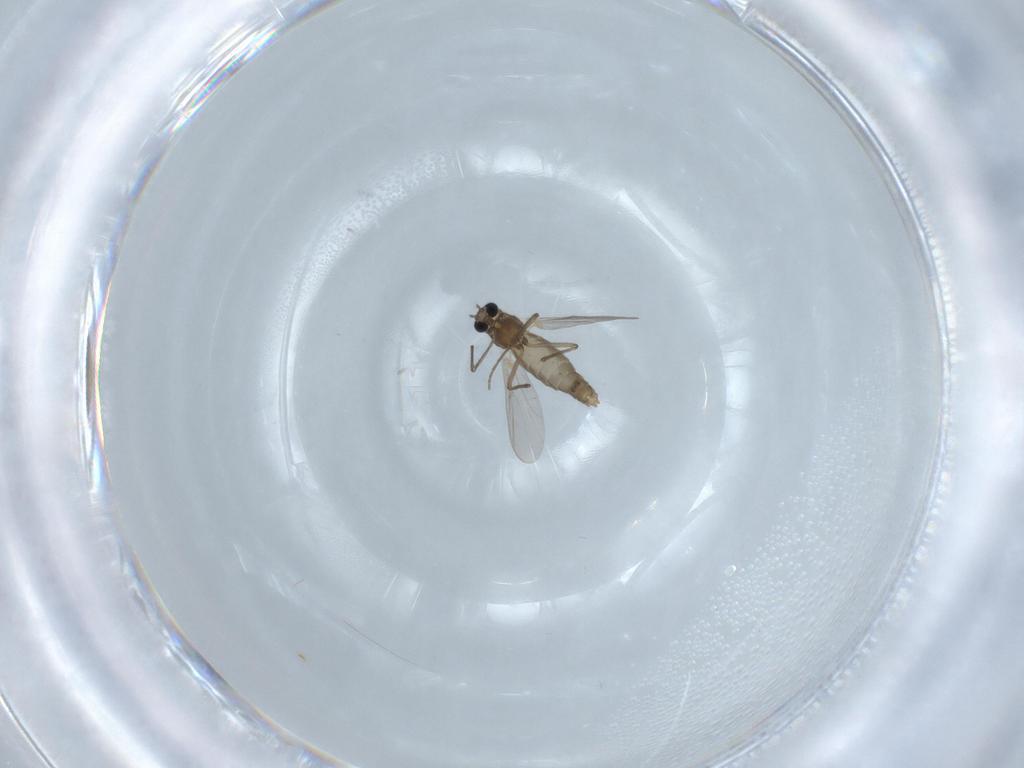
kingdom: Animalia
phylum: Arthropoda
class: Insecta
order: Diptera
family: Chironomidae
